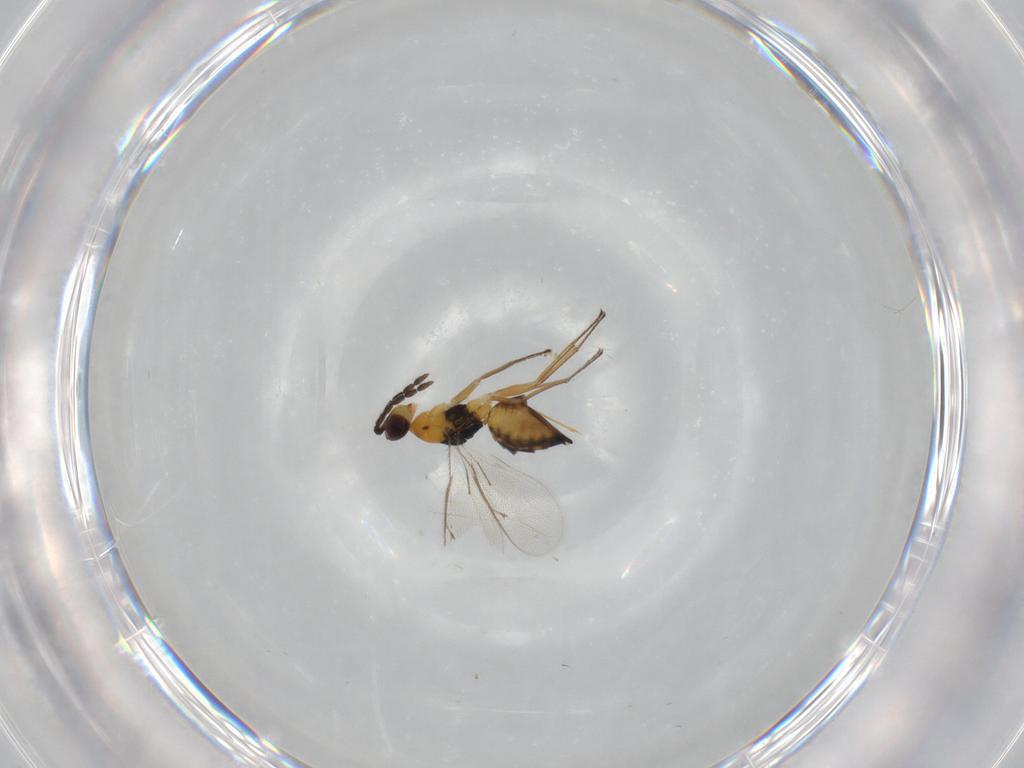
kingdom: Animalia
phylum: Arthropoda
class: Insecta
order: Hymenoptera
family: Eulophidae
